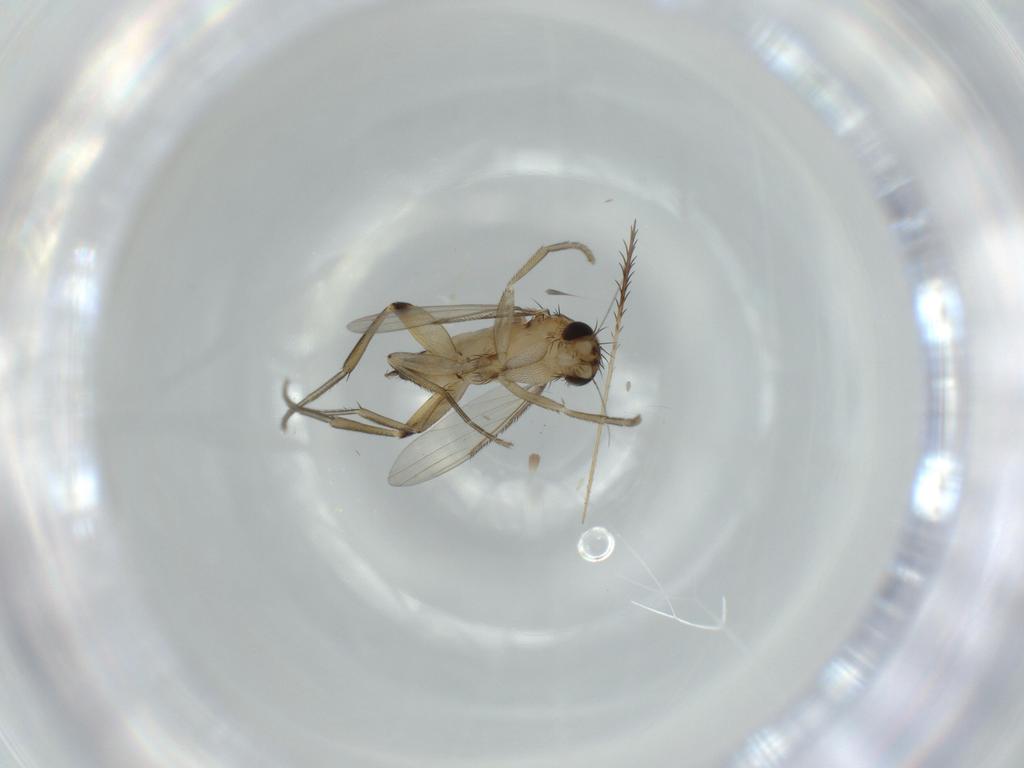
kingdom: Animalia
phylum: Arthropoda
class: Insecta
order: Diptera
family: Phoridae
